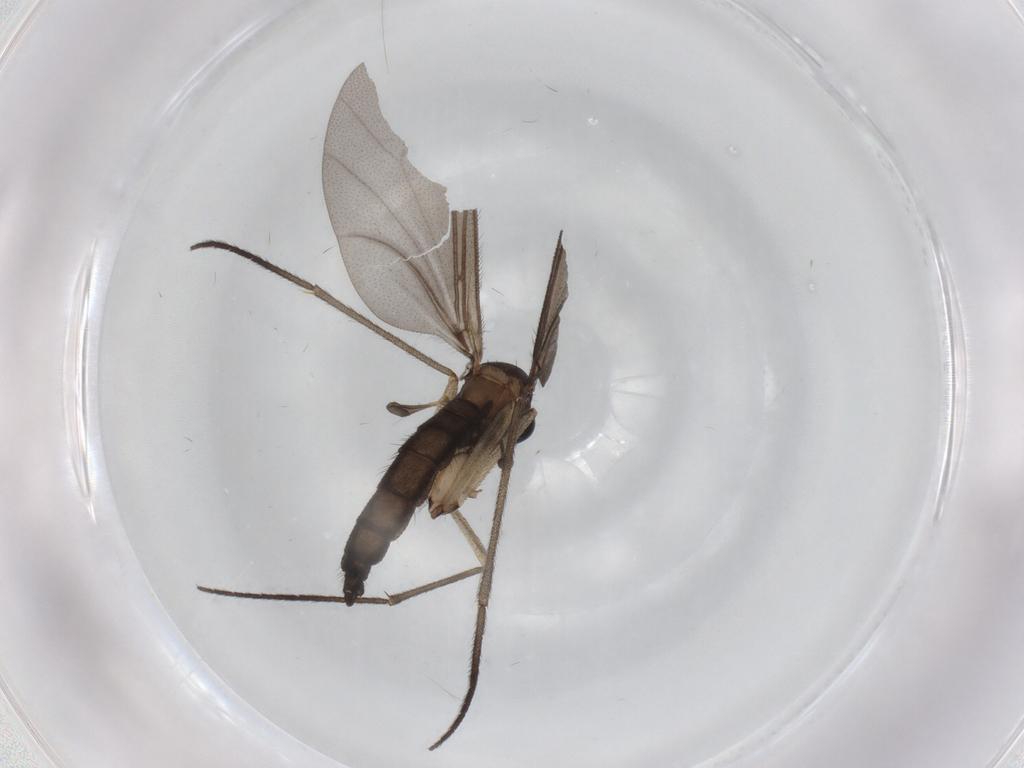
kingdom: Animalia
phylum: Arthropoda
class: Insecta
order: Diptera
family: Sciaridae
